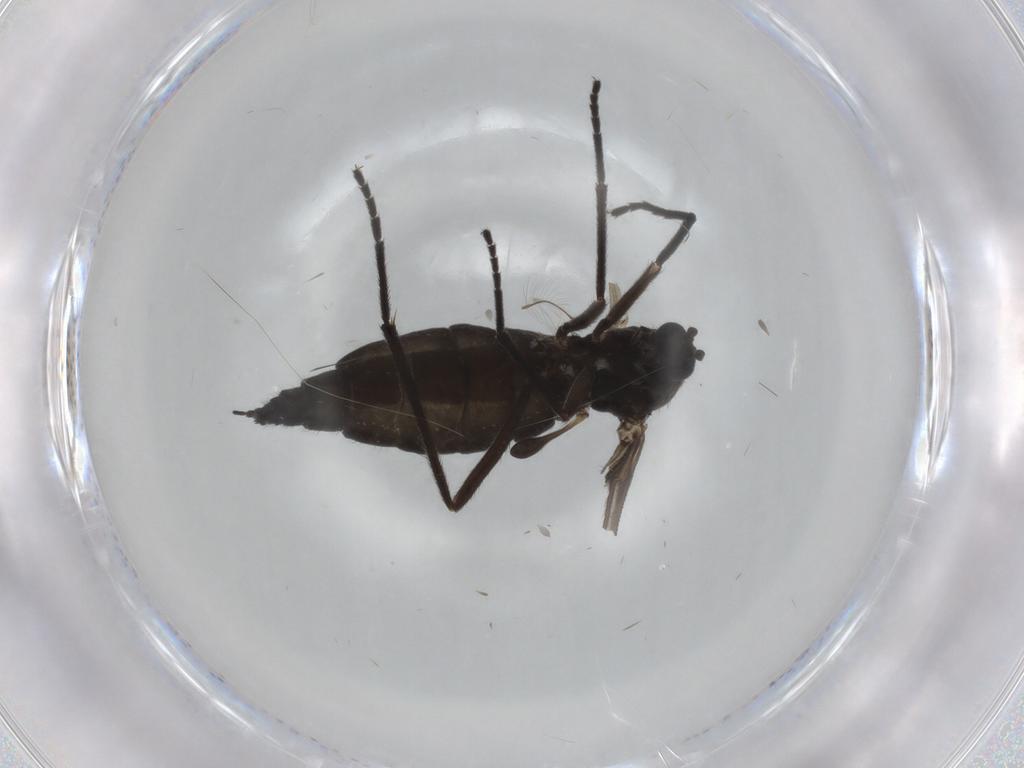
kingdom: Animalia
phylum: Arthropoda
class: Insecta
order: Diptera
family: Sciaridae
